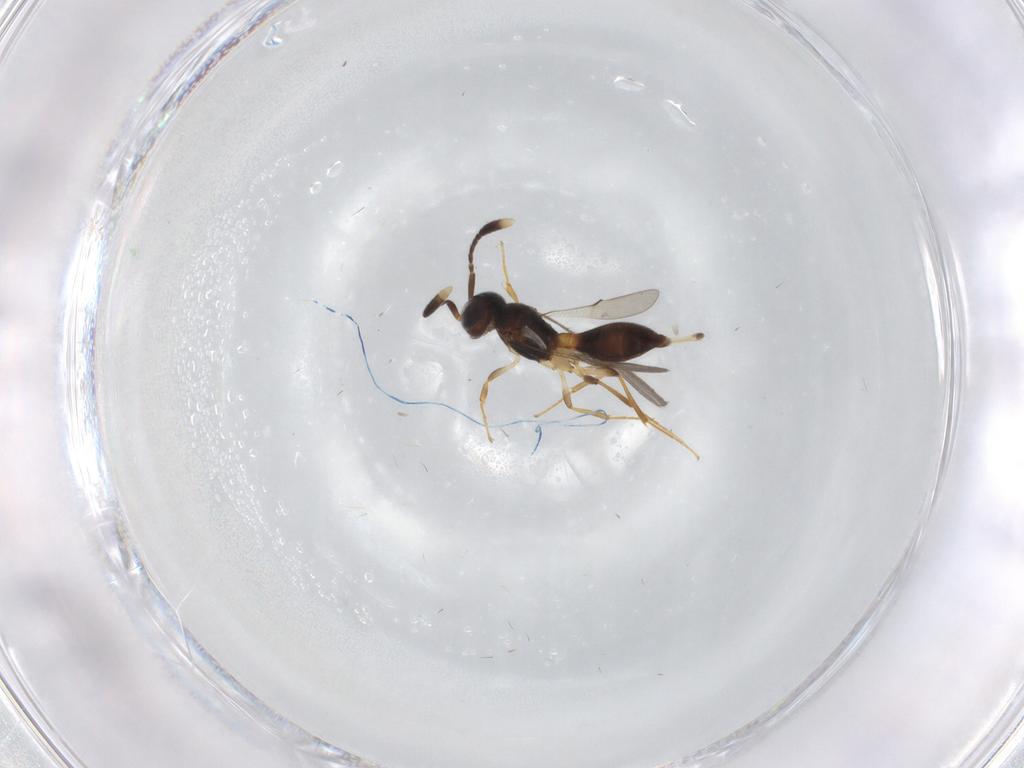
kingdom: Animalia
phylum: Arthropoda
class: Insecta
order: Hymenoptera
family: Scelionidae
